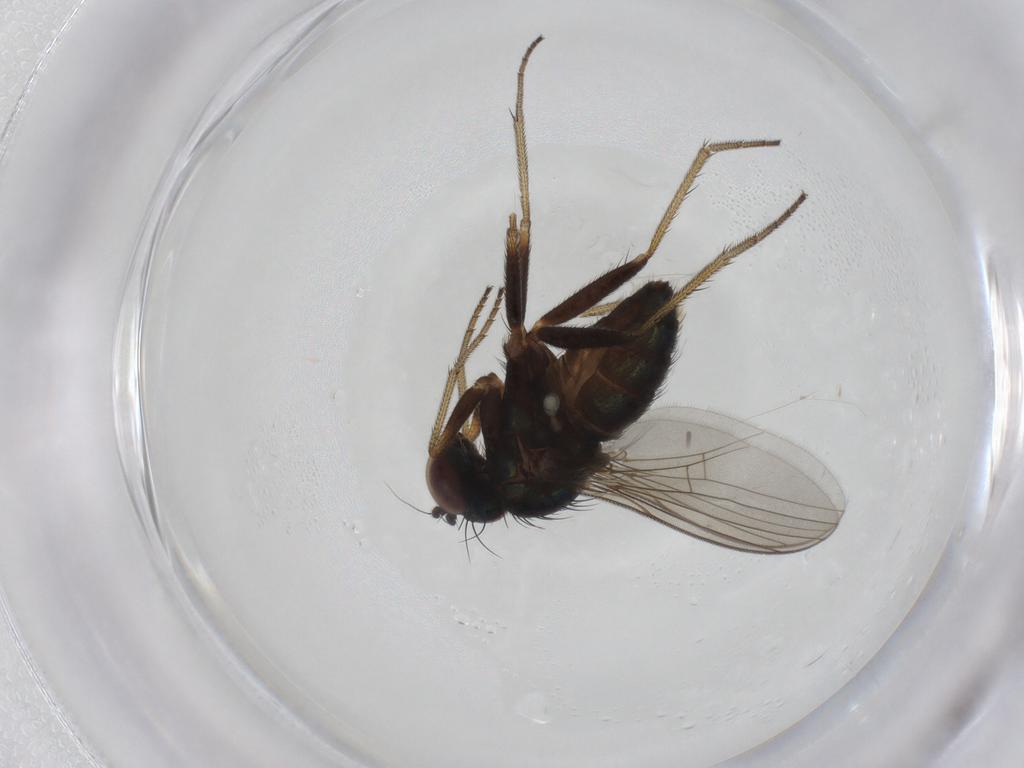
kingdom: Animalia
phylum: Arthropoda
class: Insecta
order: Diptera
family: Dolichopodidae
